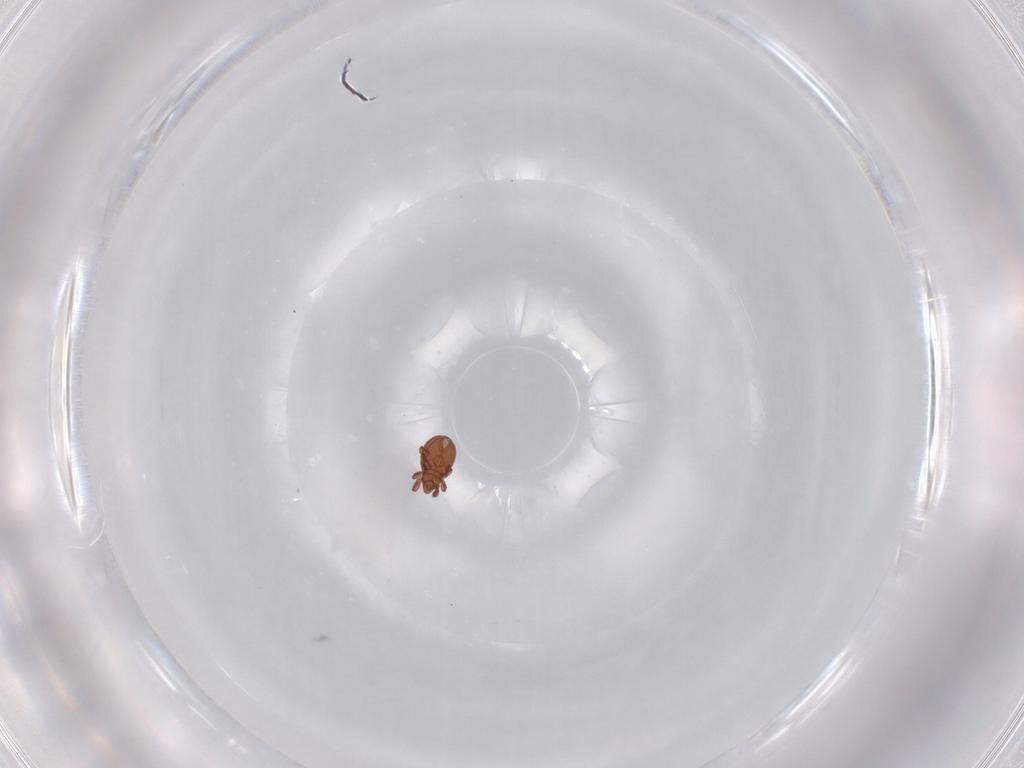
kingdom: Animalia
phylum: Arthropoda
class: Arachnida
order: Sarcoptiformes
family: Eremaeidae
